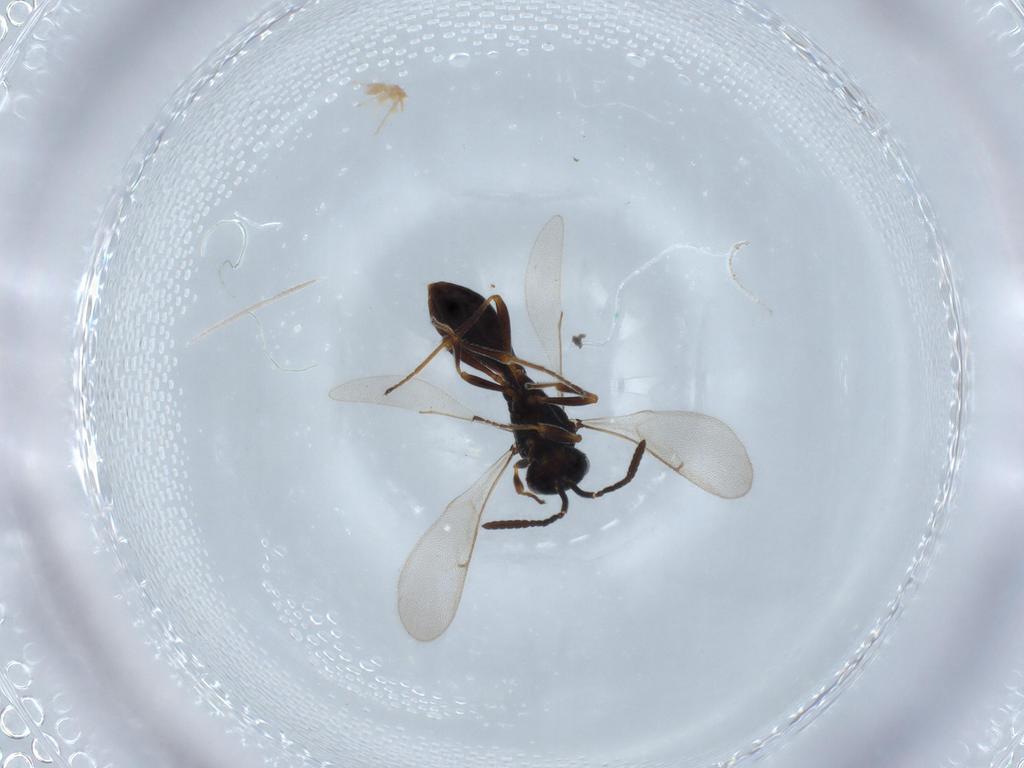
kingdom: Animalia
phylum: Arthropoda
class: Insecta
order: Hymenoptera
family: Scelionidae
